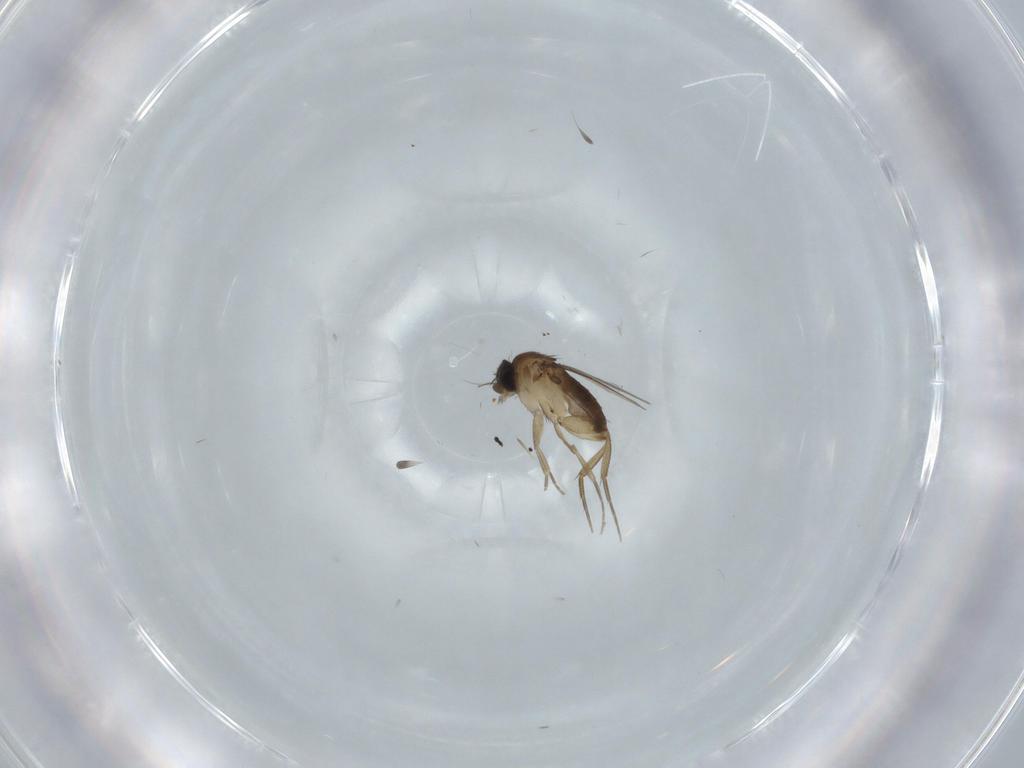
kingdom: Animalia
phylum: Arthropoda
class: Insecta
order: Diptera
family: Phoridae
